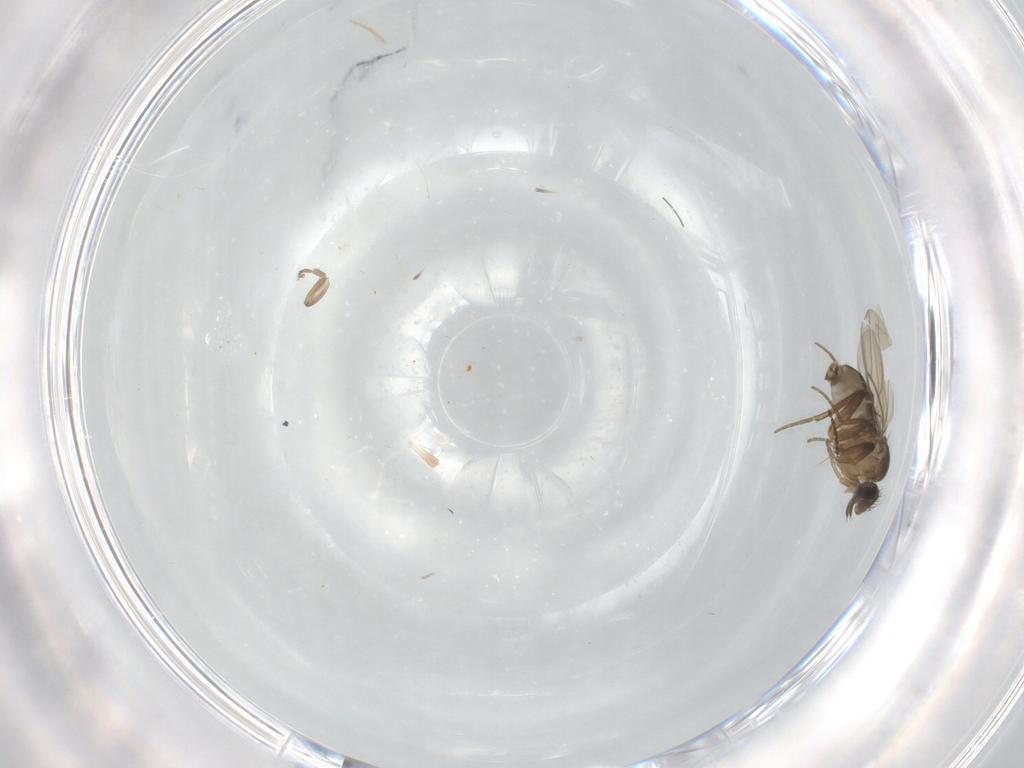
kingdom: Animalia
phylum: Arthropoda
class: Insecta
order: Diptera
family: Phoridae
